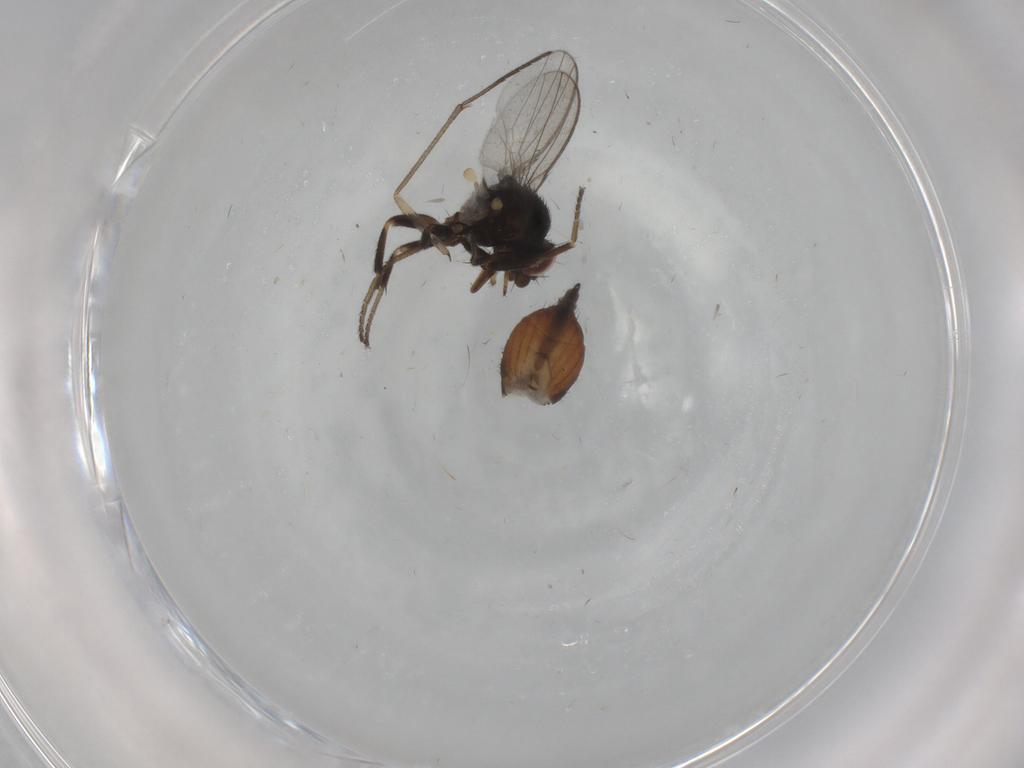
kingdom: Animalia
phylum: Arthropoda
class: Insecta
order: Diptera
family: Milichiidae
